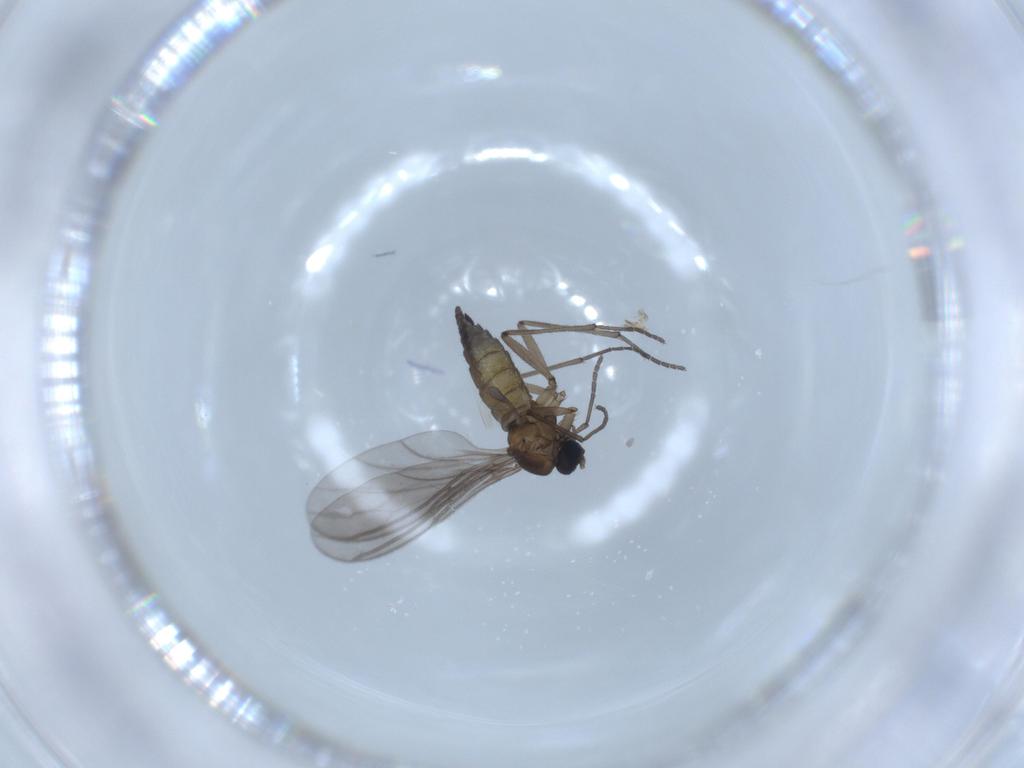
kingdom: Animalia
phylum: Arthropoda
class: Insecta
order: Diptera
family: Sciaridae
